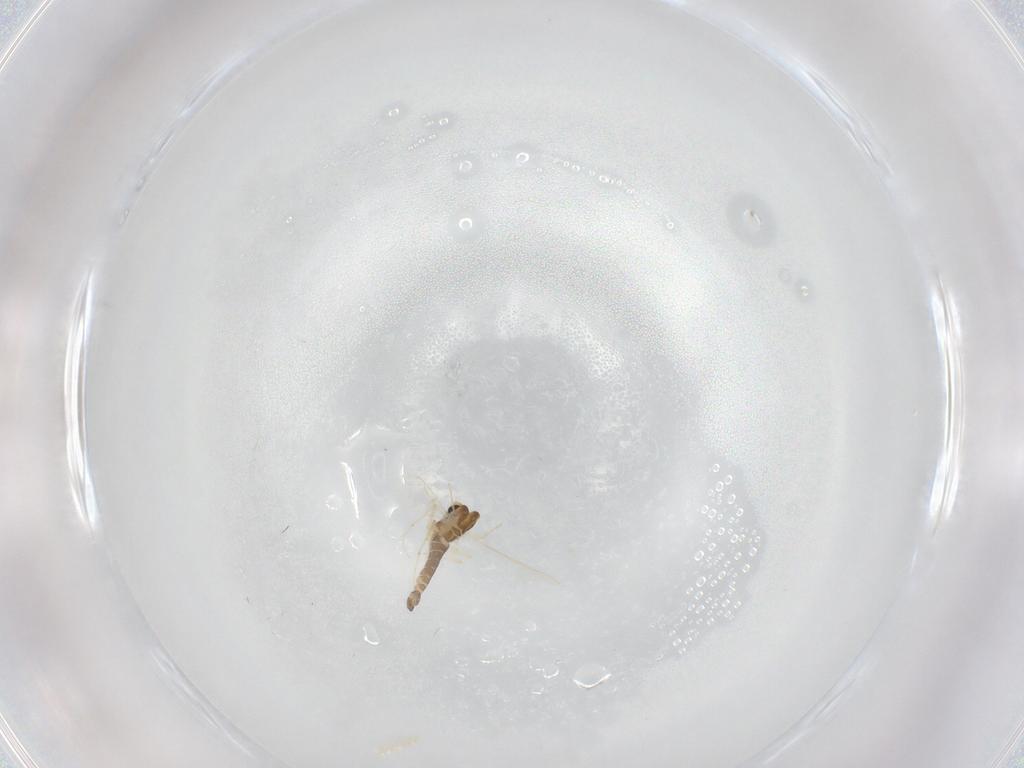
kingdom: Animalia
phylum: Arthropoda
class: Insecta
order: Diptera
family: Chironomidae
